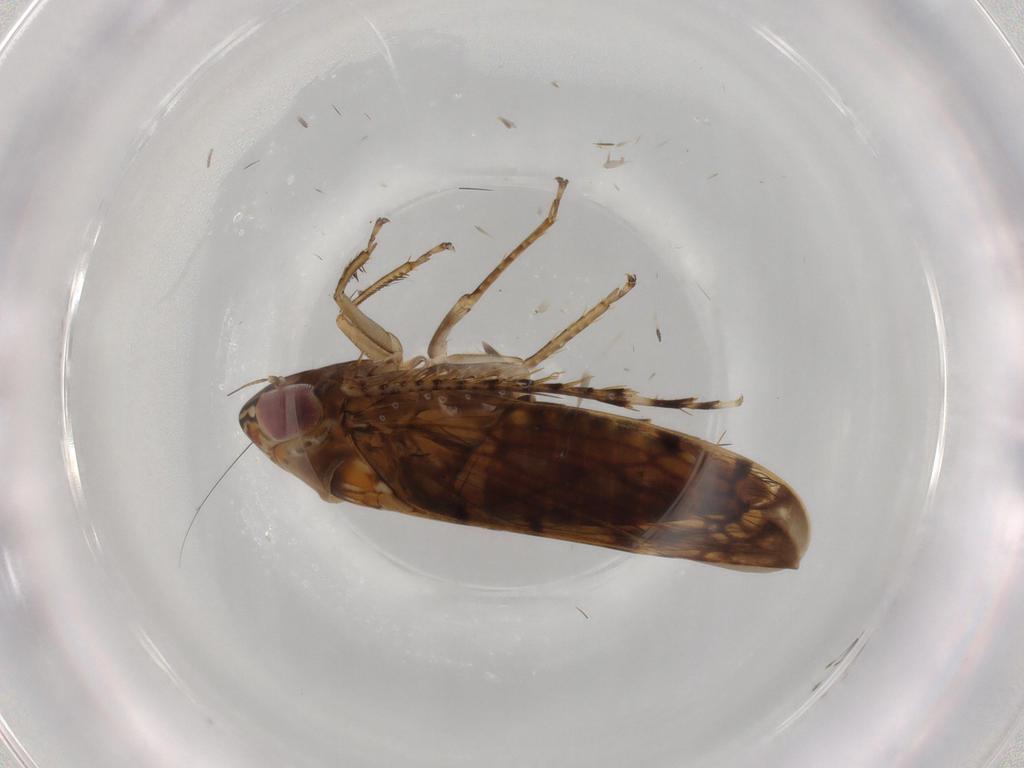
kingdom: Animalia
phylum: Arthropoda
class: Insecta
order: Hemiptera
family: Cicadellidae
